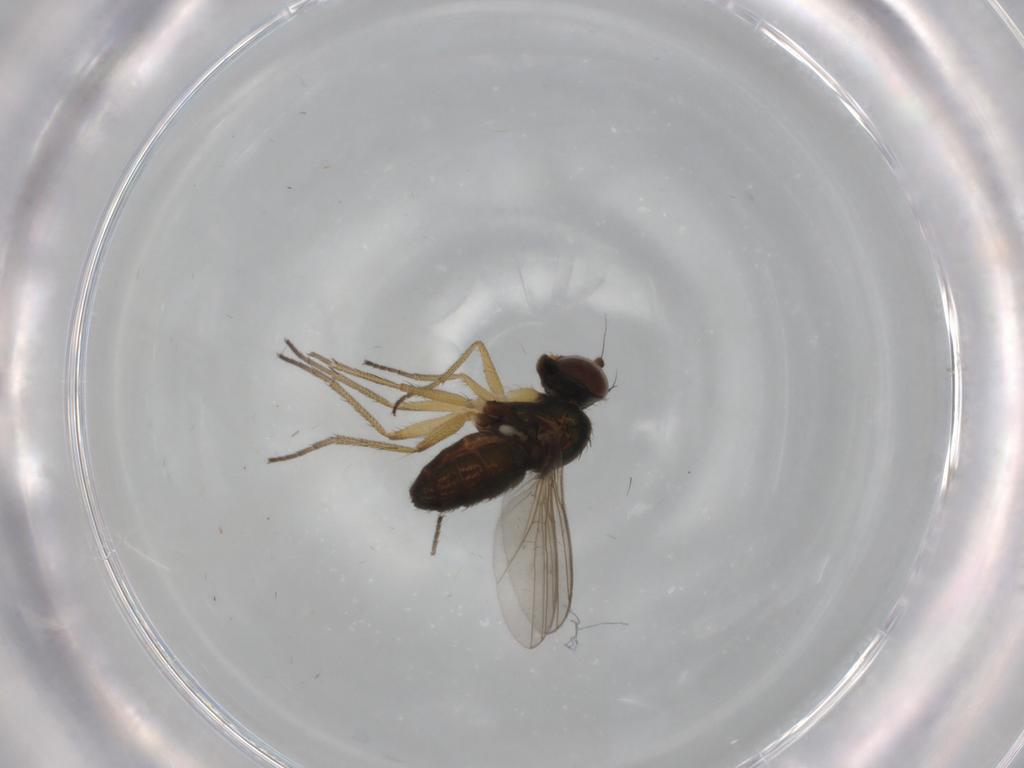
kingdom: Animalia
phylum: Arthropoda
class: Insecta
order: Diptera
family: Dolichopodidae
